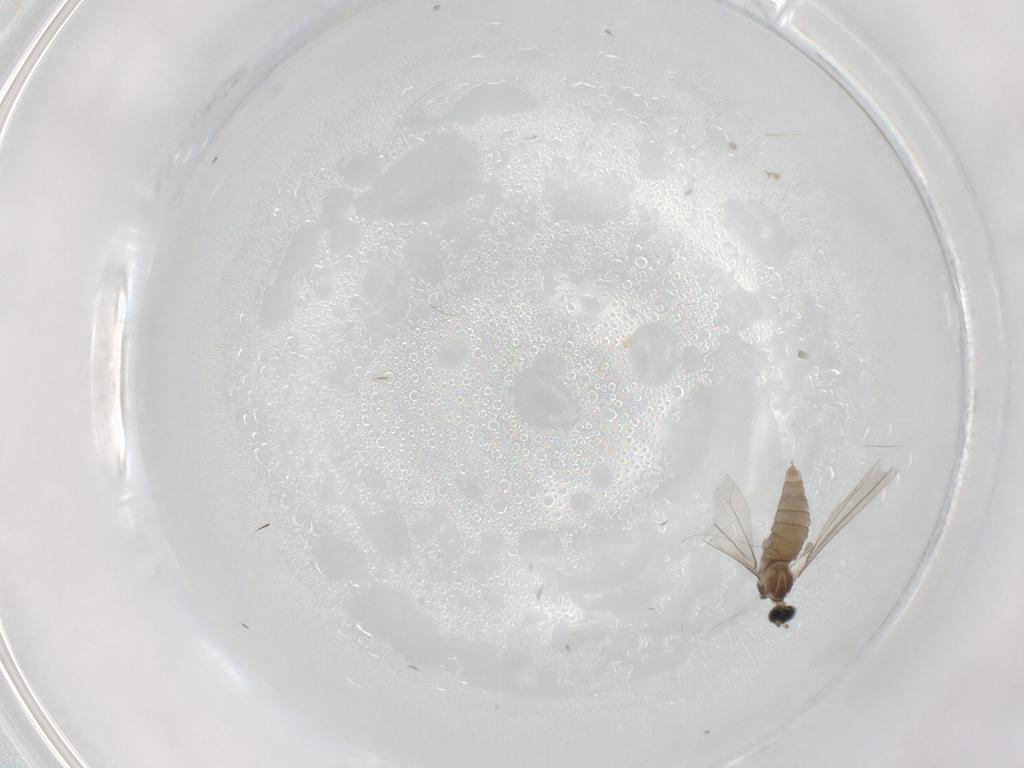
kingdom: Animalia
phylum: Arthropoda
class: Insecta
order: Diptera
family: Cecidomyiidae
